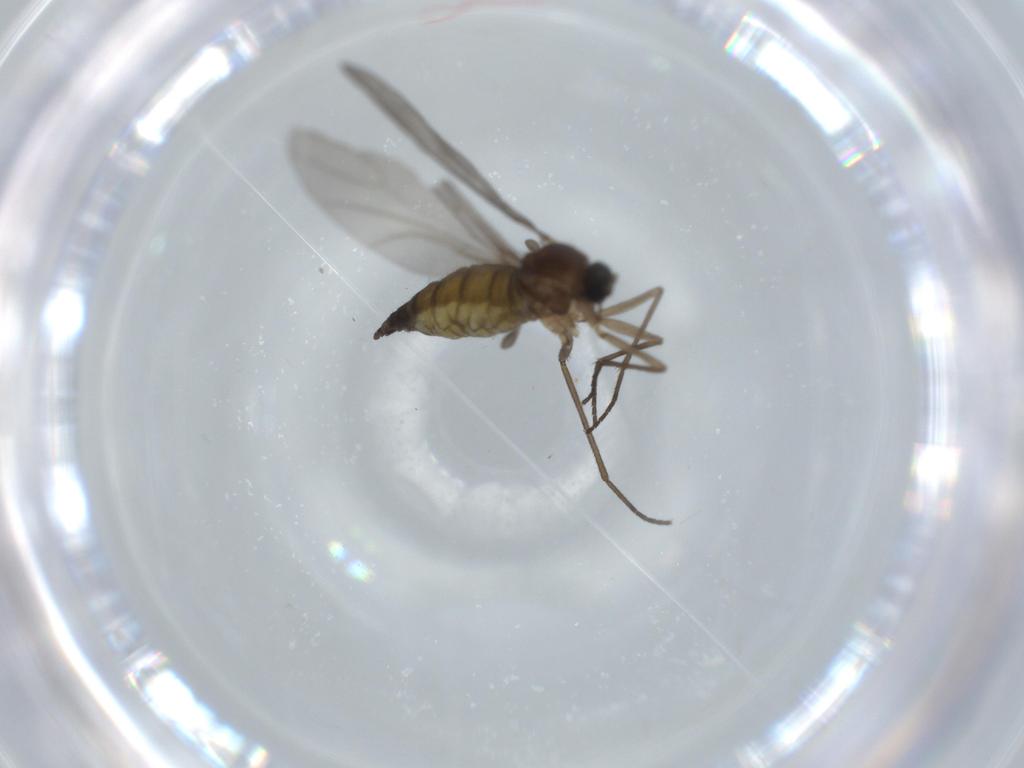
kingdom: Animalia
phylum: Arthropoda
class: Insecta
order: Diptera
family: Sciaridae
